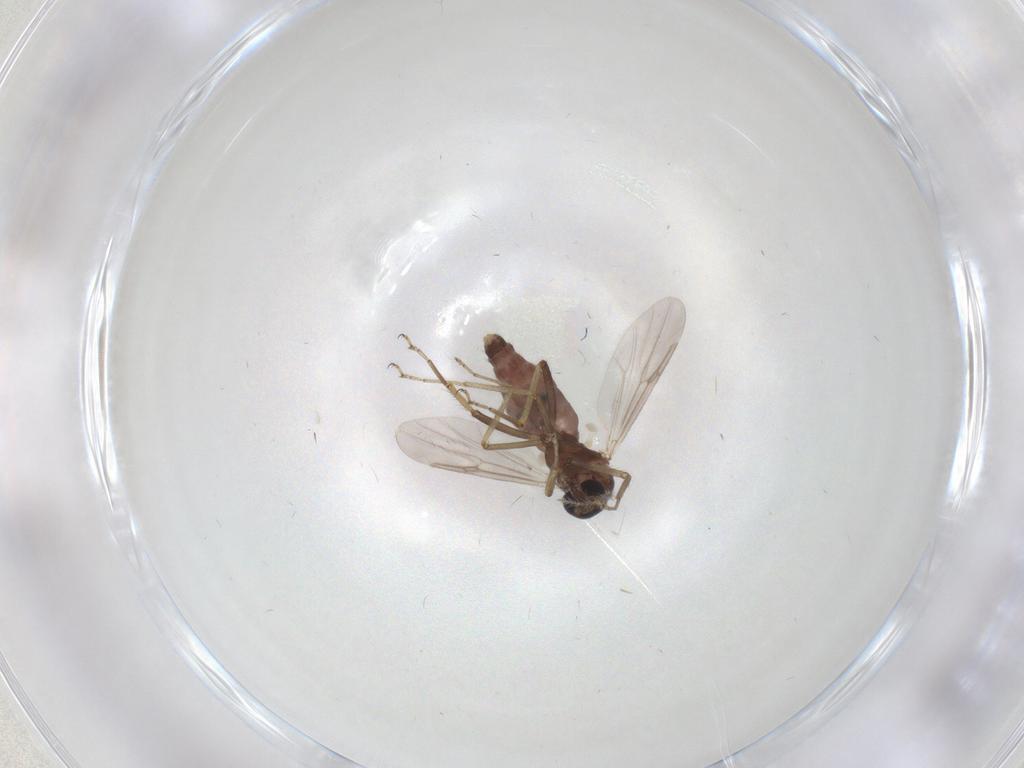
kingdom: Animalia
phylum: Arthropoda
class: Insecta
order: Diptera
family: Ceratopogonidae
